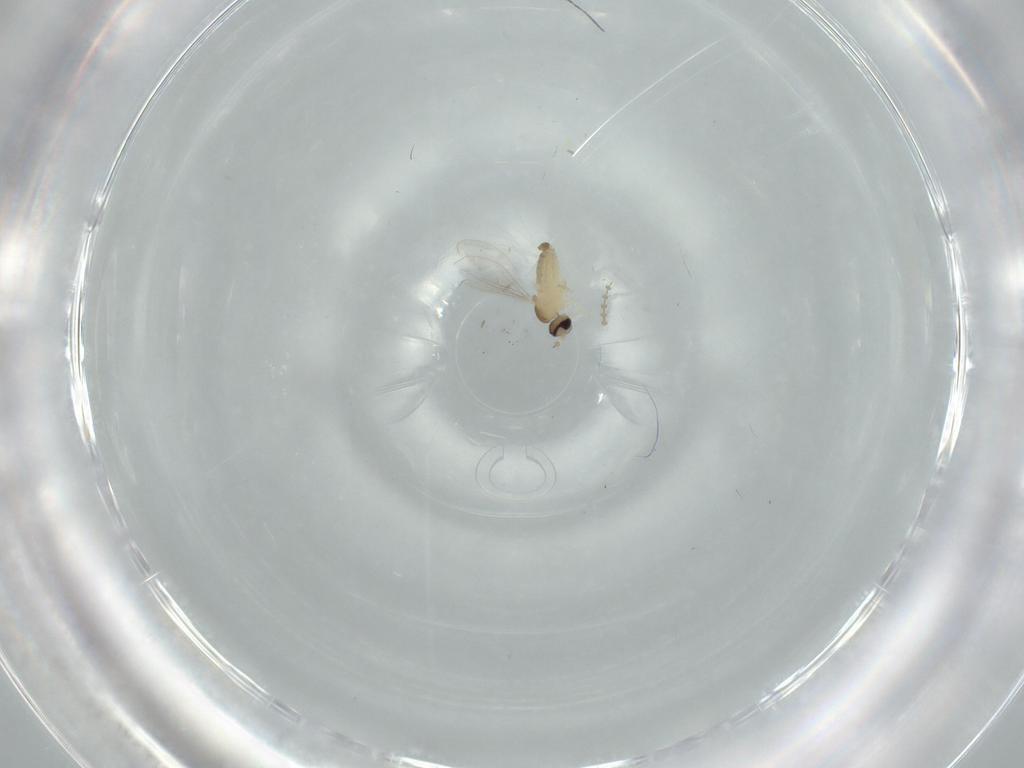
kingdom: Animalia
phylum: Arthropoda
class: Insecta
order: Diptera
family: Cecidomyiidae
